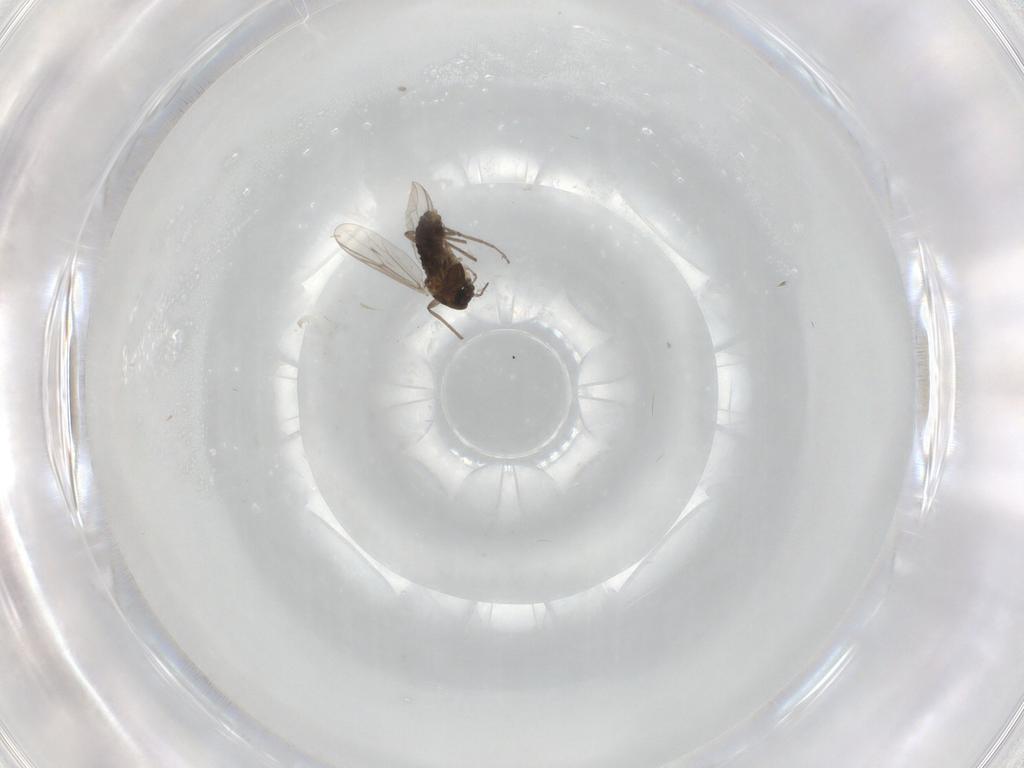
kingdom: Animalia
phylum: Arthropoda
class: Insecta
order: Diptera
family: Chironomidae
